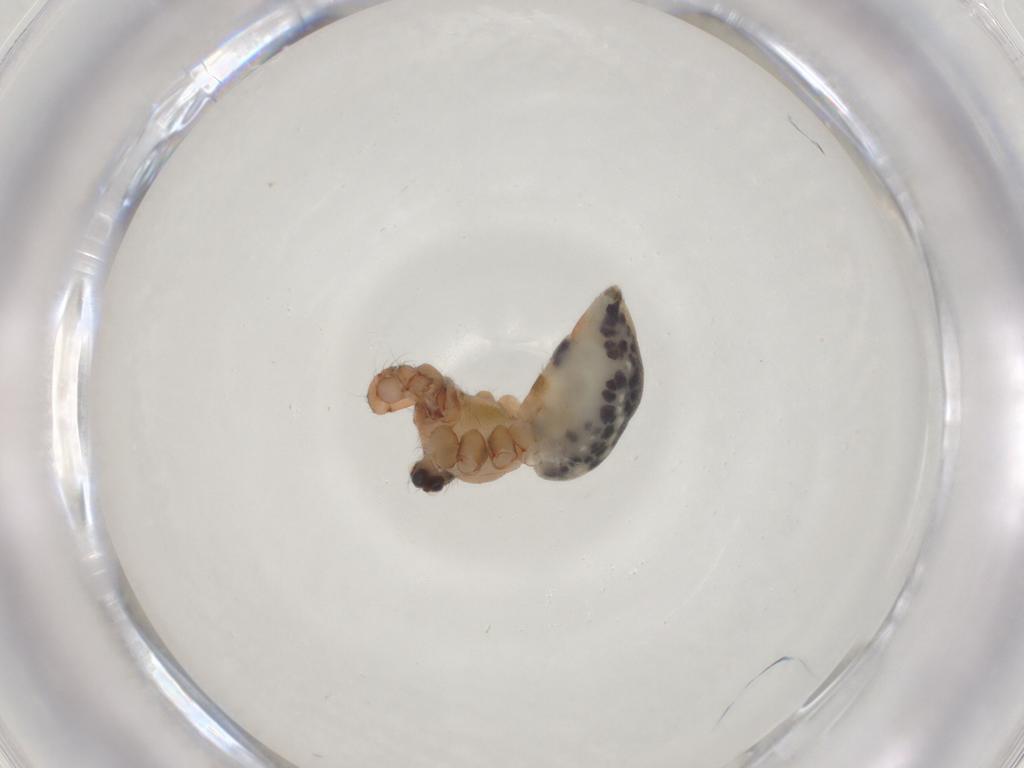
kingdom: Animalia
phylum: Arthropoda
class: Arachnida
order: Araneae
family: Pholcidae
